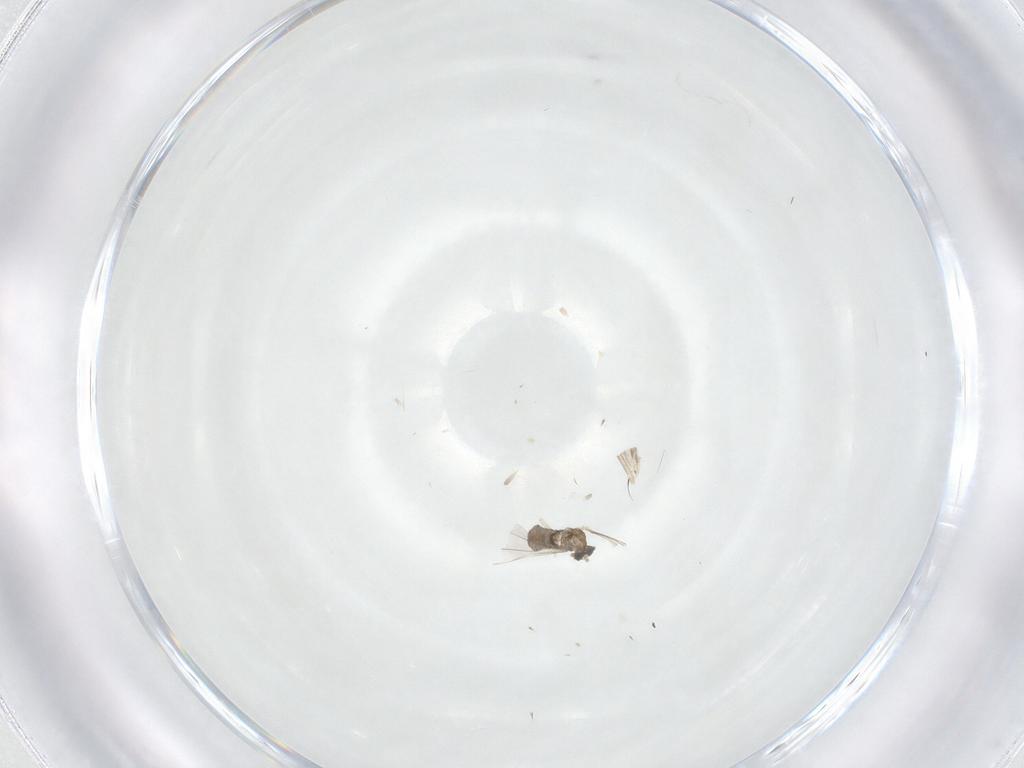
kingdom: Animalia
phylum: Arthropoda
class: Insecta
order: Diptera
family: Cecidomyiidae
